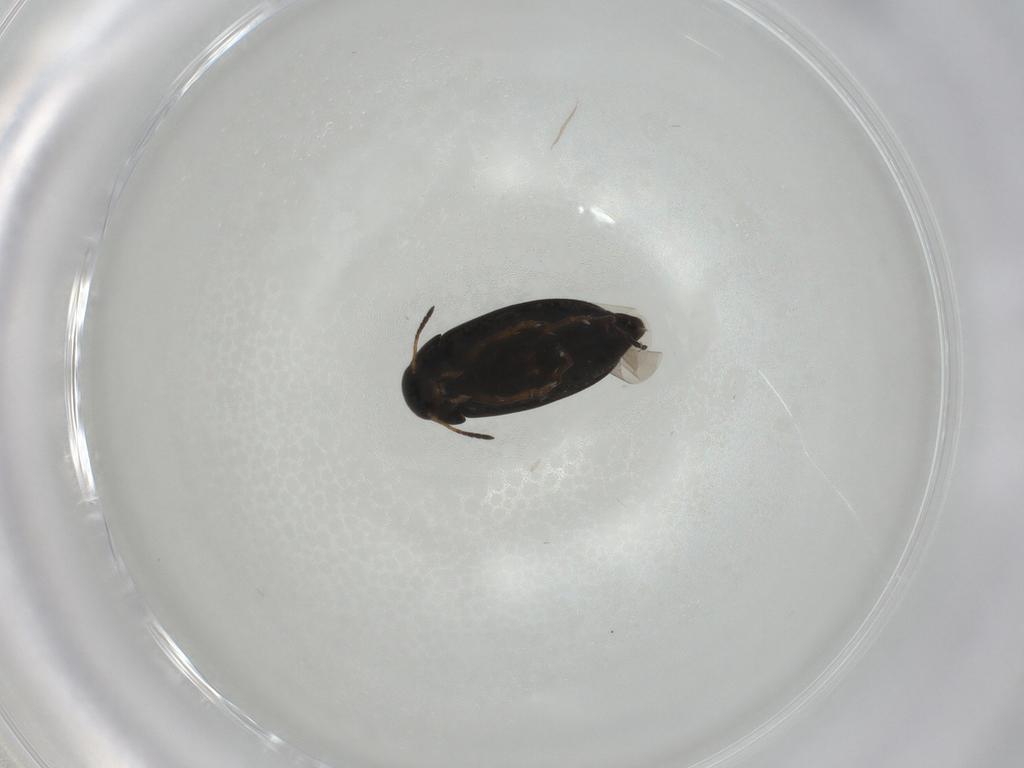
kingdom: Animalia
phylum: Arthropoda
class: Insecta
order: Coleoptera
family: Scraptiidae
